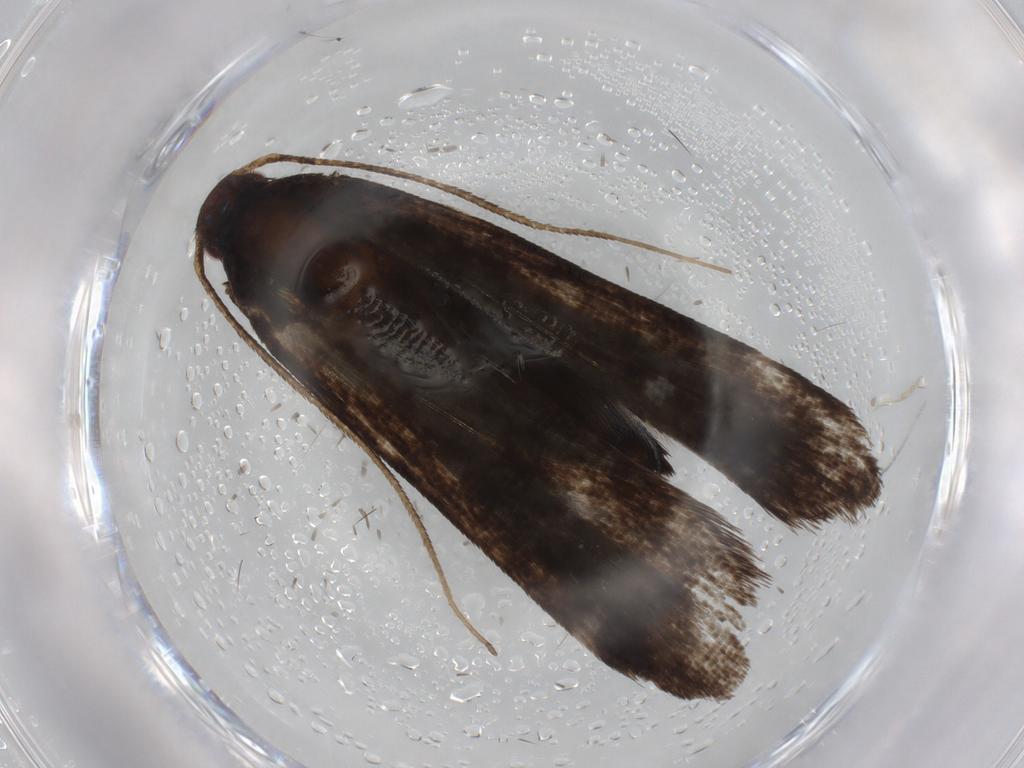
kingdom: Animalia
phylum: Arthropoda
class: Insecta
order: Lepidoptera
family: Gelechiidae
